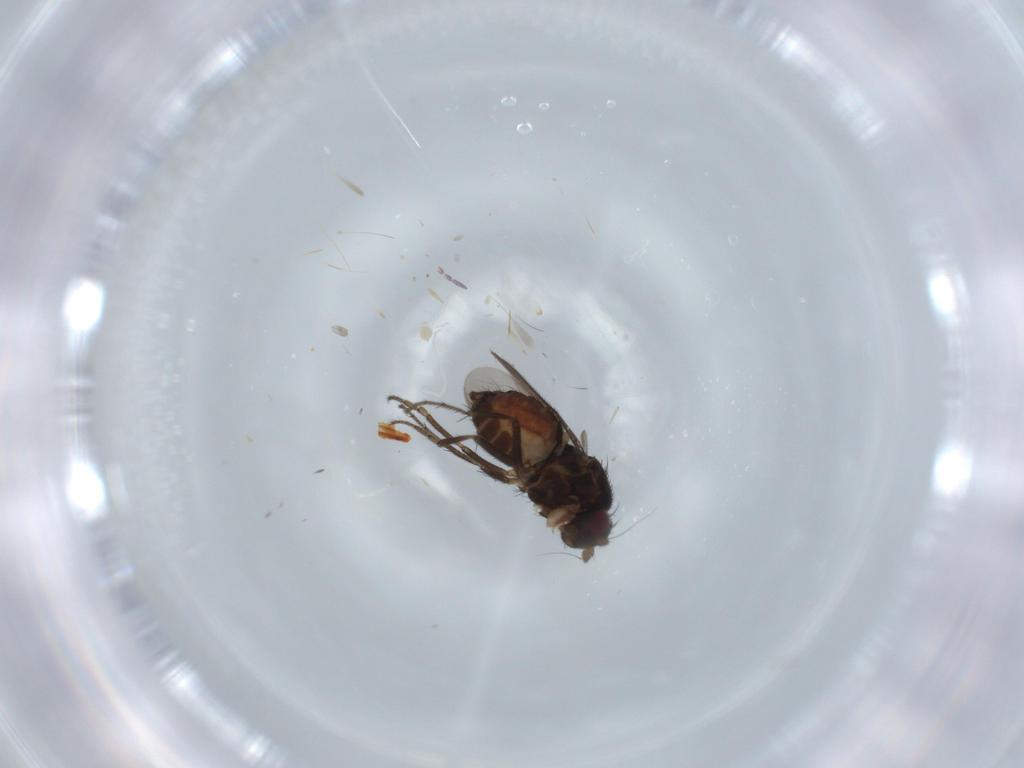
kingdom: Animalia
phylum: Arthropoda
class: Insecta
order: Diptera
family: Sphaeroceridae
